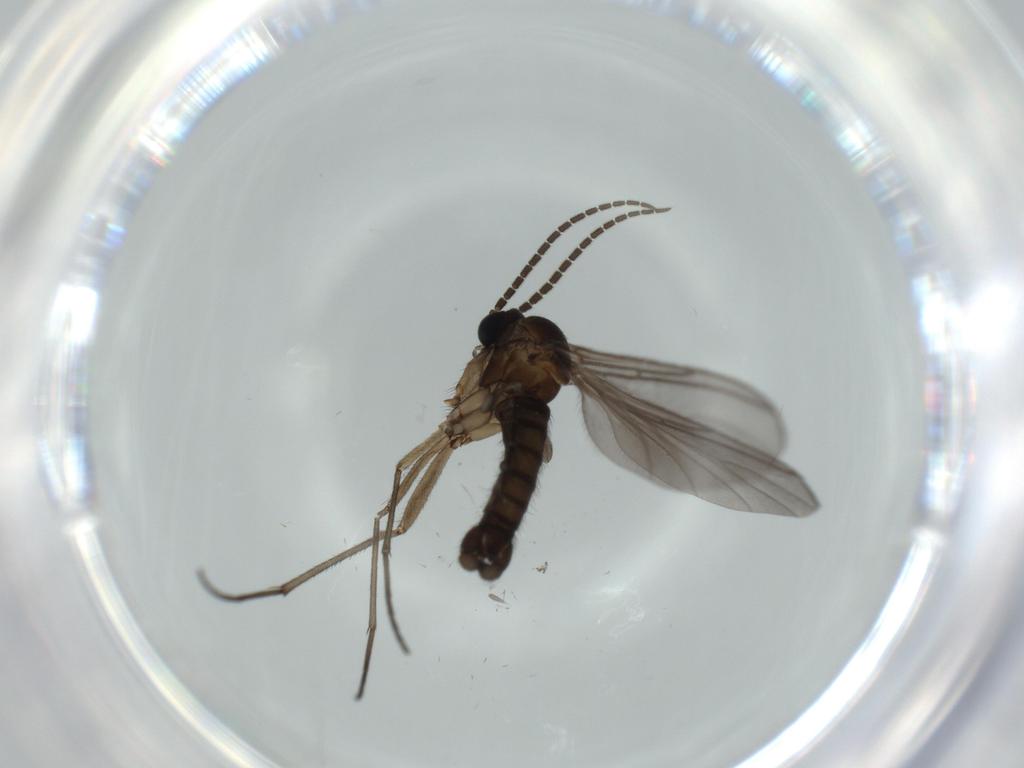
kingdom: Animalia
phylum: Arthropoda
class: Insecta
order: Diptera
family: Sciaridae
